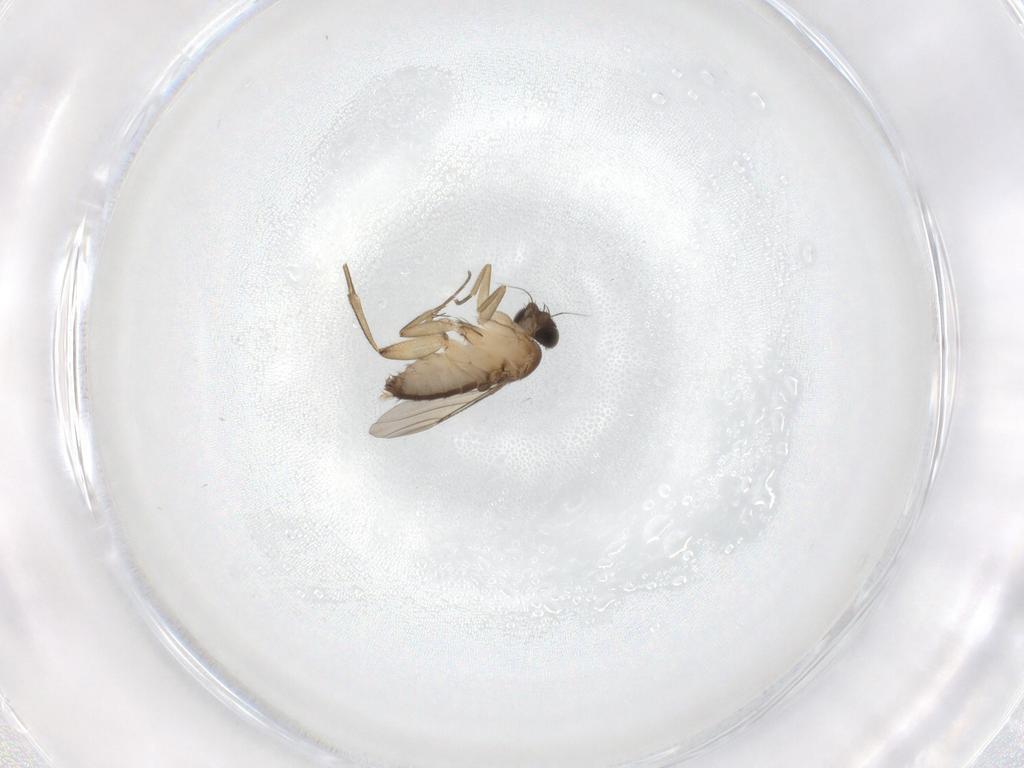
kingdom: Animalia
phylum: Arthropoda
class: Insecta
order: Diptera
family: Phoridae
